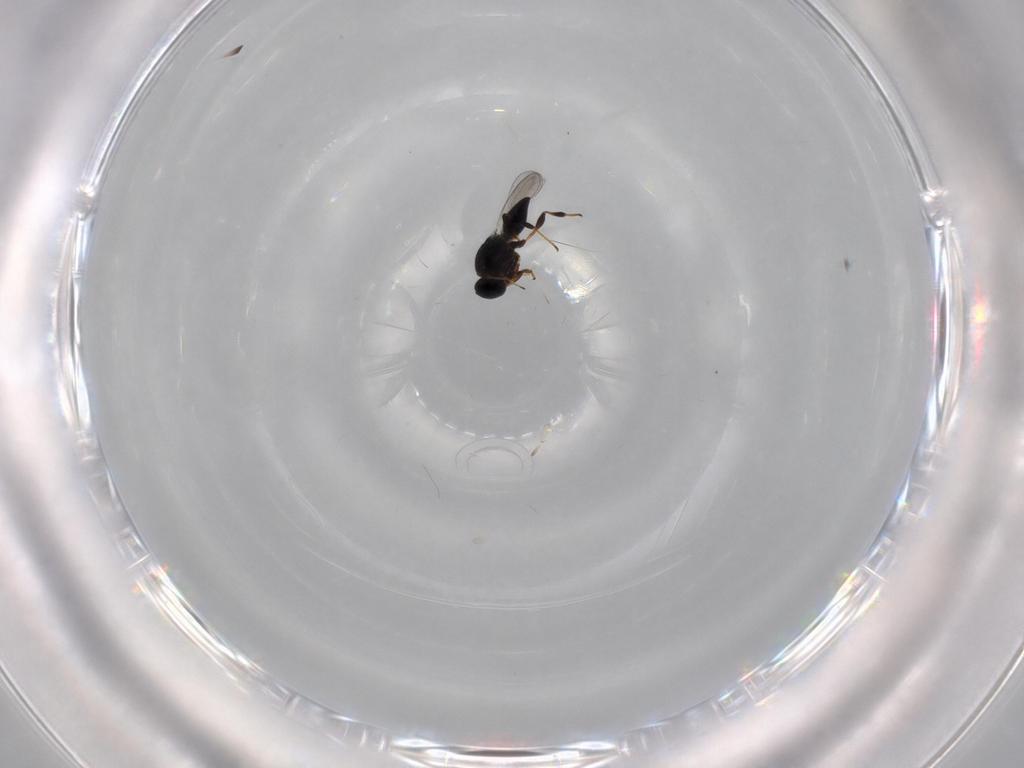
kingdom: Animalia
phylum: Arthropoda
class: Insecta
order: Hymenoptera
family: Platygastridae
